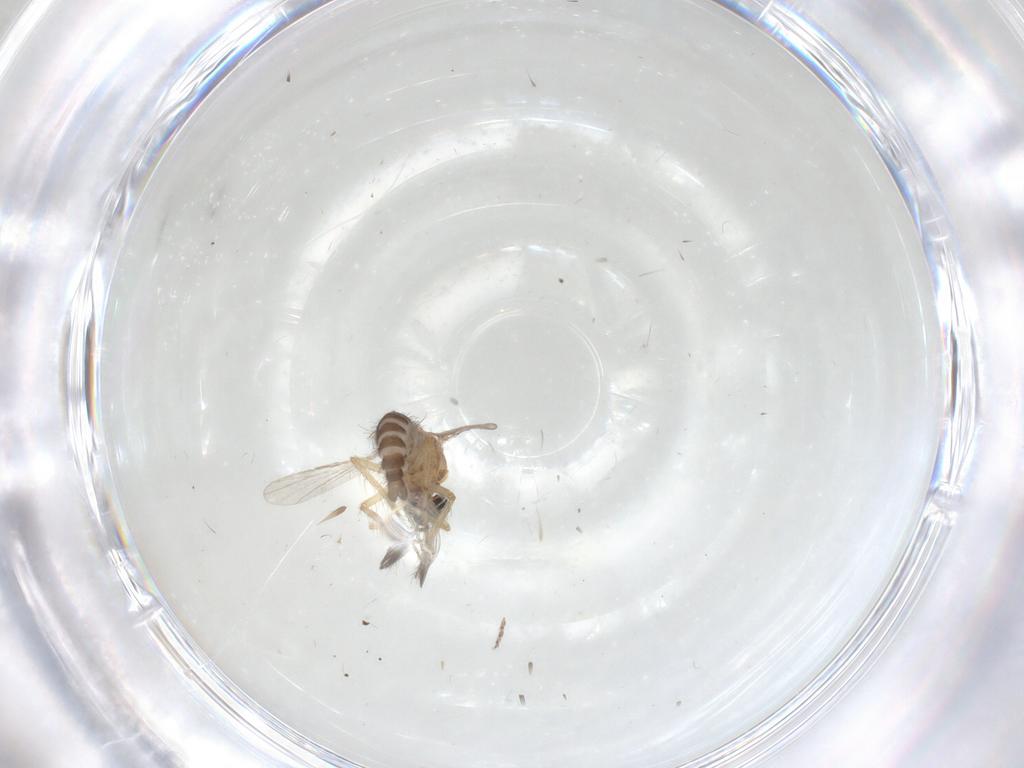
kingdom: Animalia
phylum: Arthropoda
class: Insecta
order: Diptera
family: Ceratopogonidae
